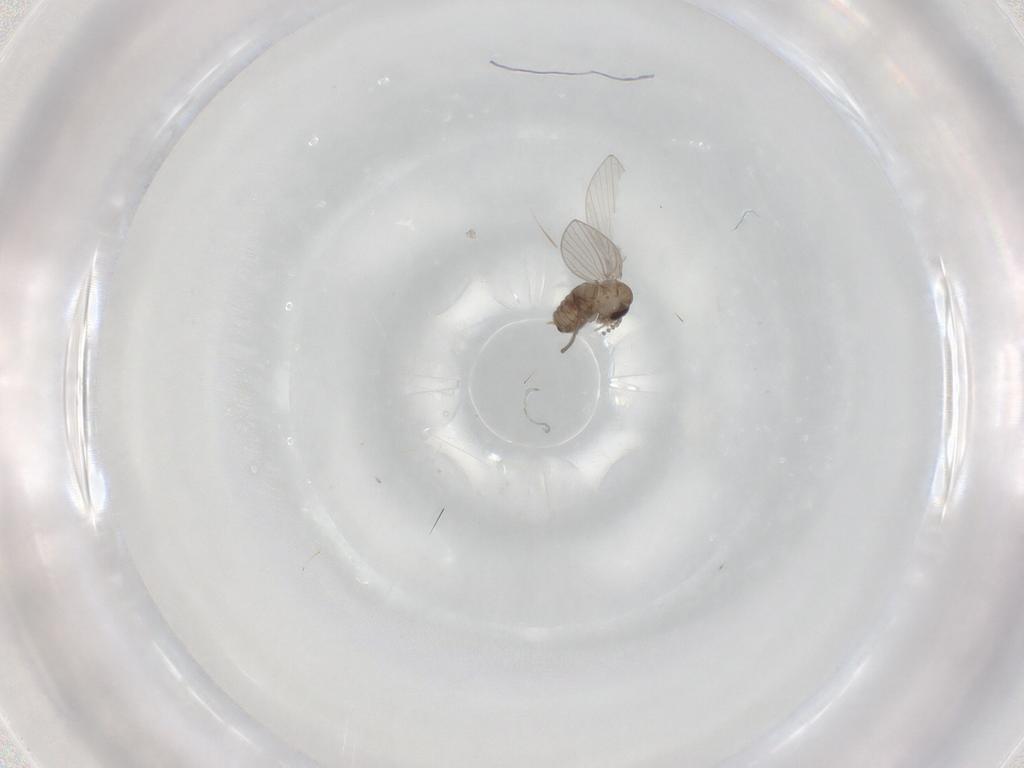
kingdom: Animalia
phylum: Arthropoda
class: Insecta
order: Diptera
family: Psychodidae
